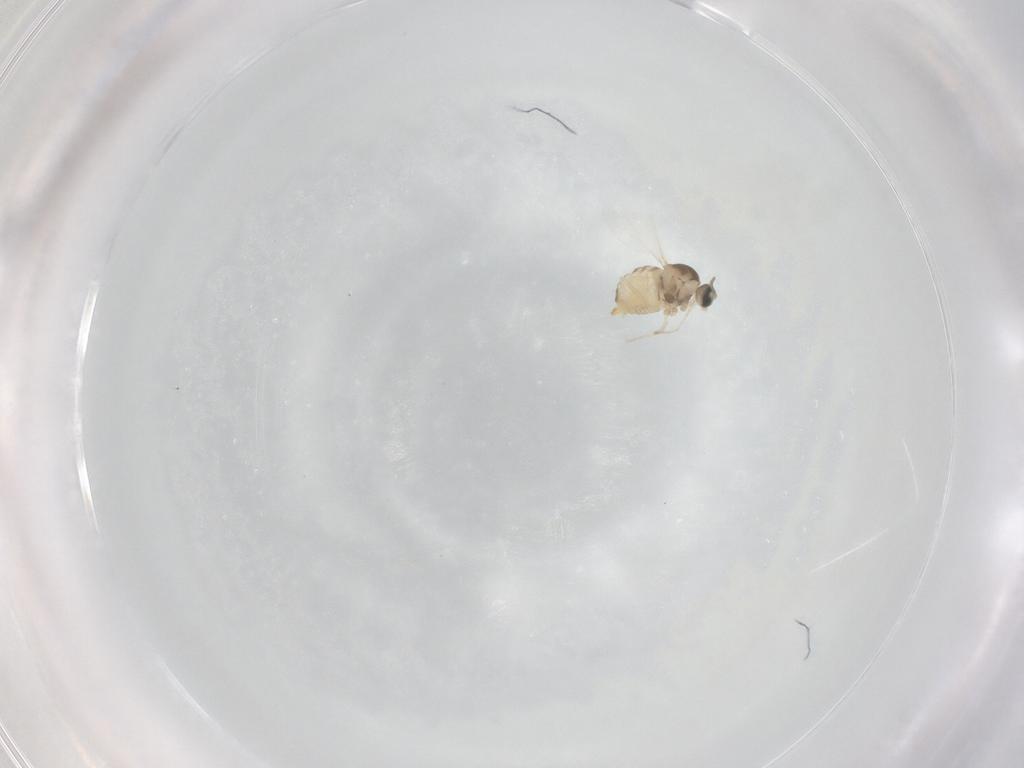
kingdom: Animalia
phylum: Arthropoda
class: Insecta
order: Diptera
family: Cecidomyiidae
